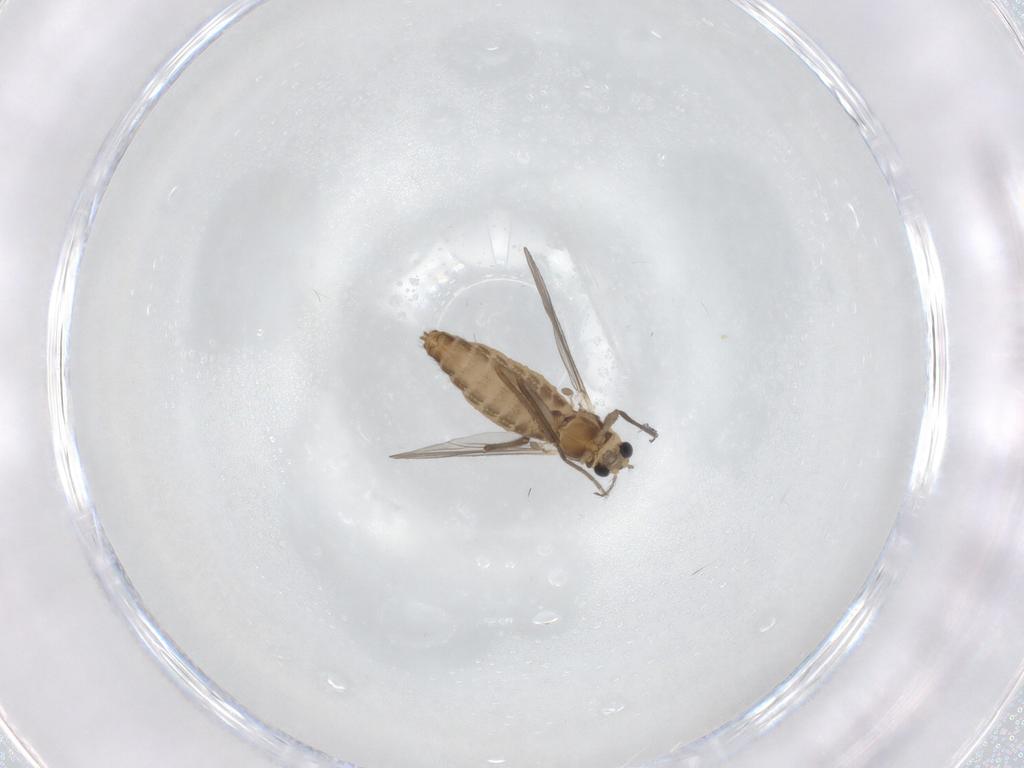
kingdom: Animalia
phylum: Arthropoda
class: Insecta
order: Diptera
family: Chironomidae
